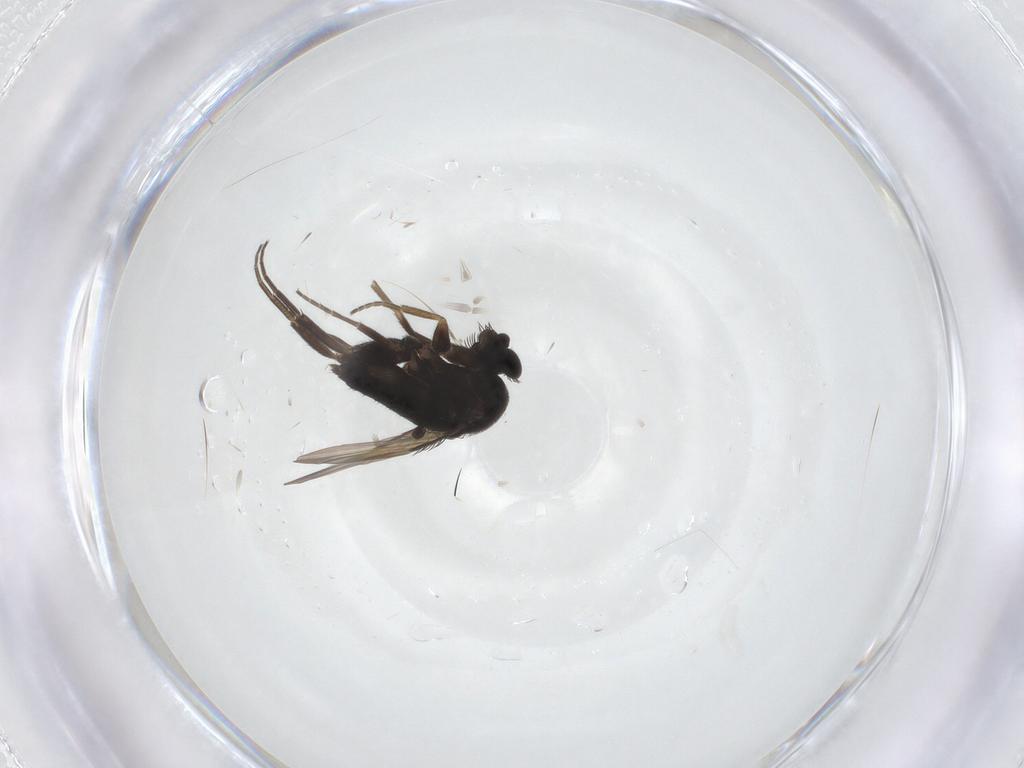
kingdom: Animalia
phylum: Arthropoda
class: Insecta
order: Diptera
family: Phoridae
